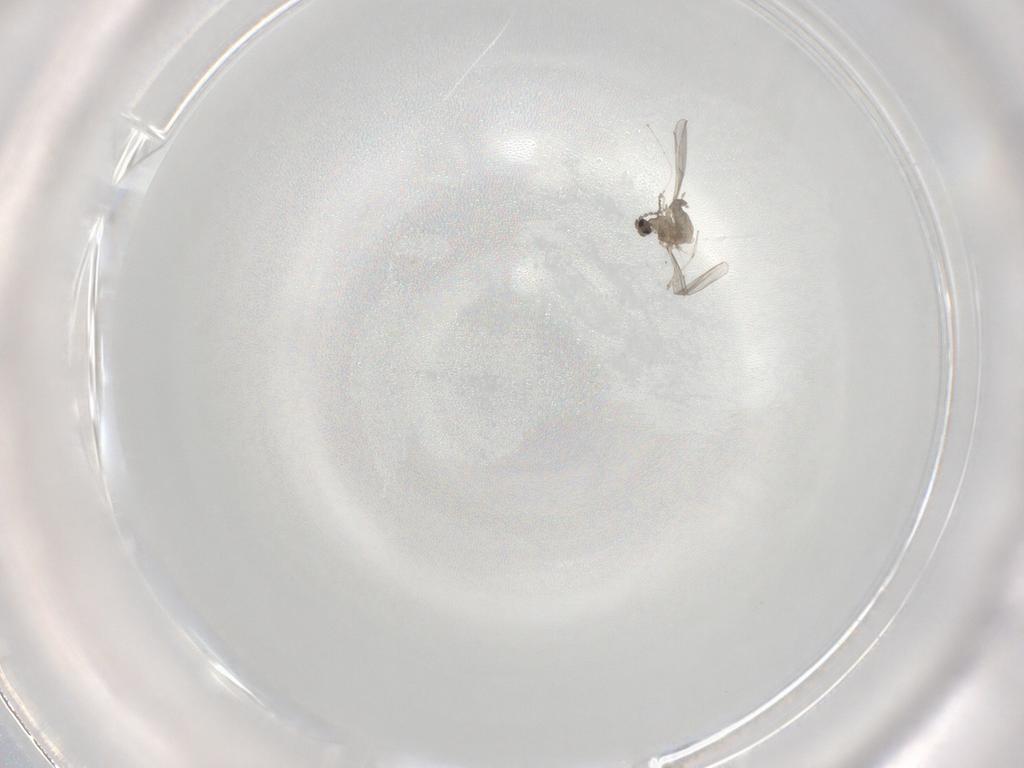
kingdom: Animalia
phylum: Arthropoda
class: Insecta
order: Diptera
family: Cecidomyiidae
